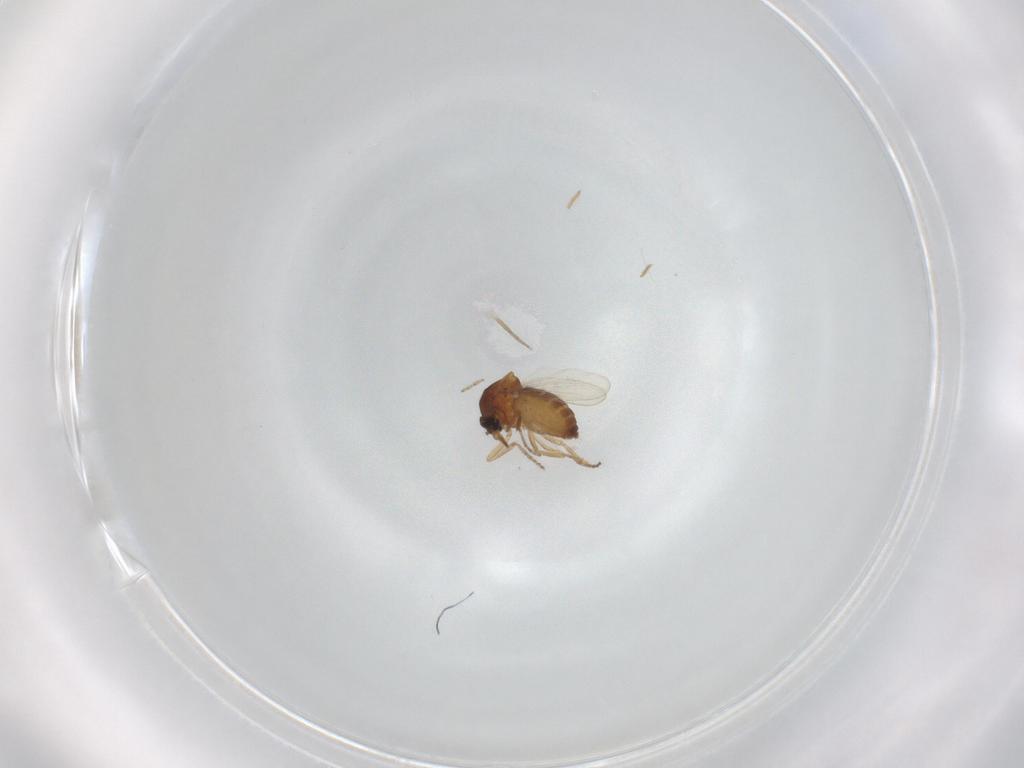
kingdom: Animalia
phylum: Arthropoda
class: Insecta
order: Diptera
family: Ceratopogonidae
